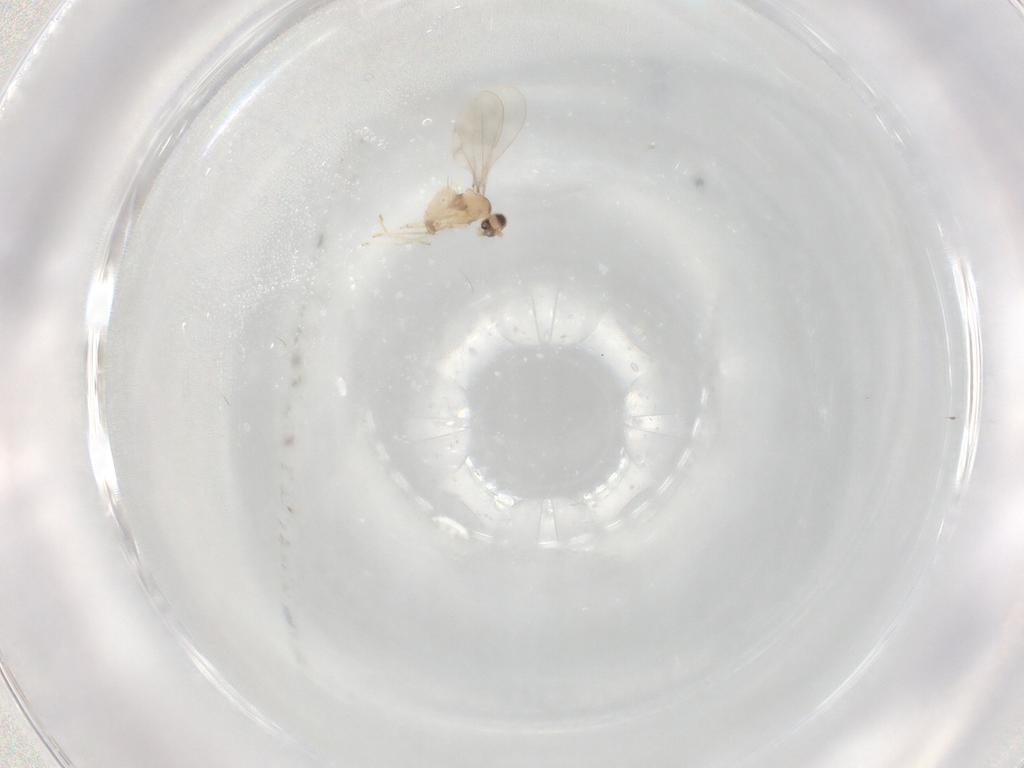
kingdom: Animalia
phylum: Arthropoda
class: Insecta
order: Diptera
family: Cecidomyiidae
